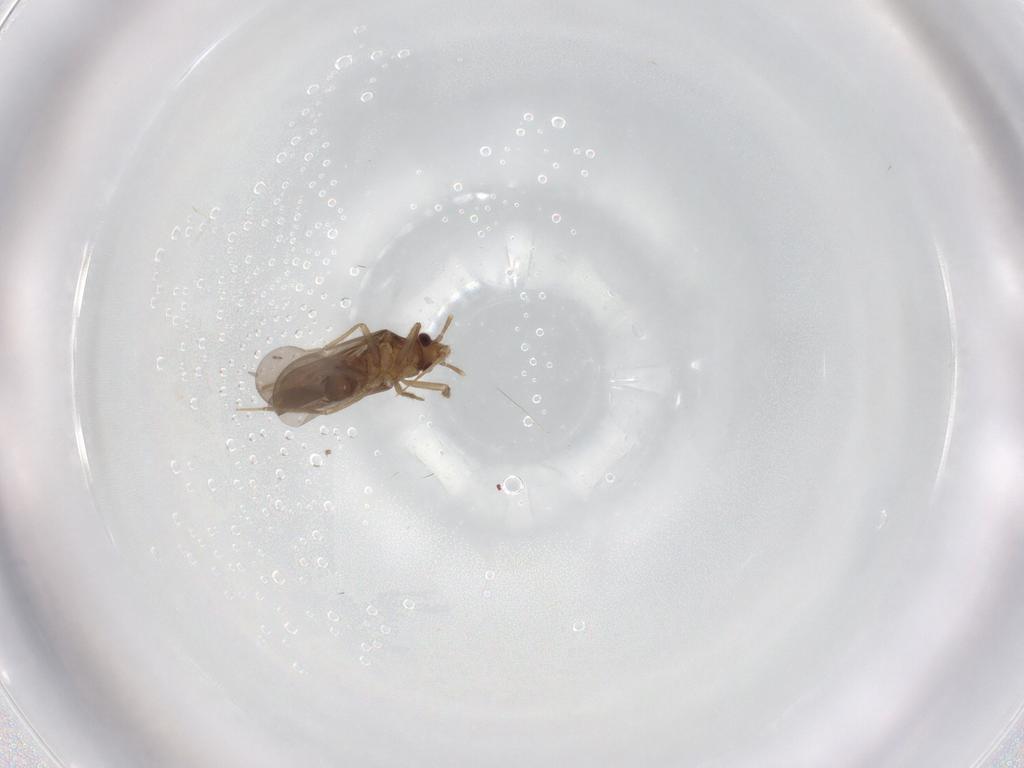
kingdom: Animalia
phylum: Arthropoda
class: Insecta
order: Hemiptera
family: Ceratocombidae
